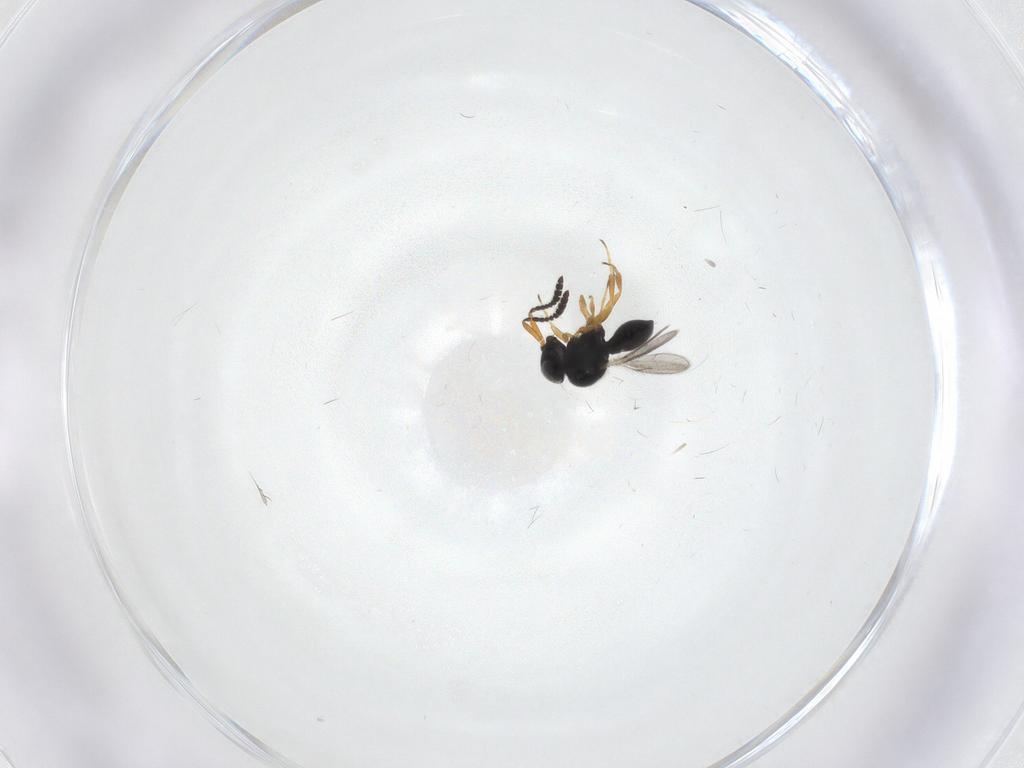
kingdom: Animalia
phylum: Arthropoda
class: Insecta
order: Hymenoptera
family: Scelionidae
